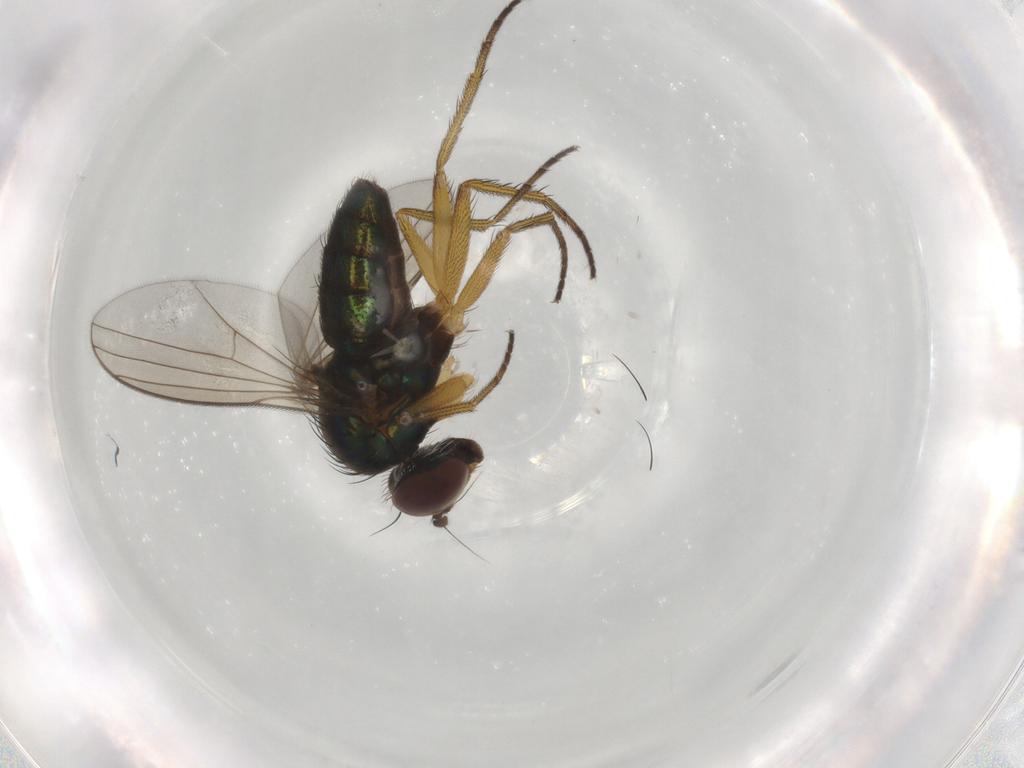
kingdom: Animalia
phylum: Arthropoda
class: Insecta
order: Diptera
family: Dolichopodidae
